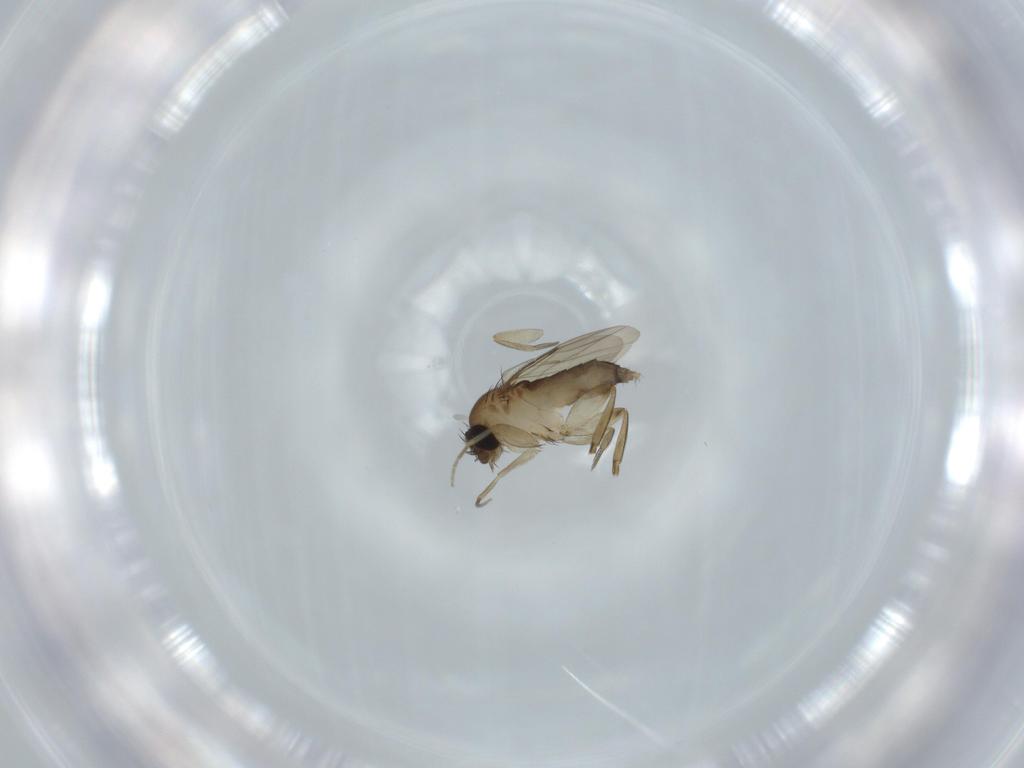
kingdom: Animalia
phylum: Arthropoda
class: Insecta
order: Diptera
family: Phoridae
